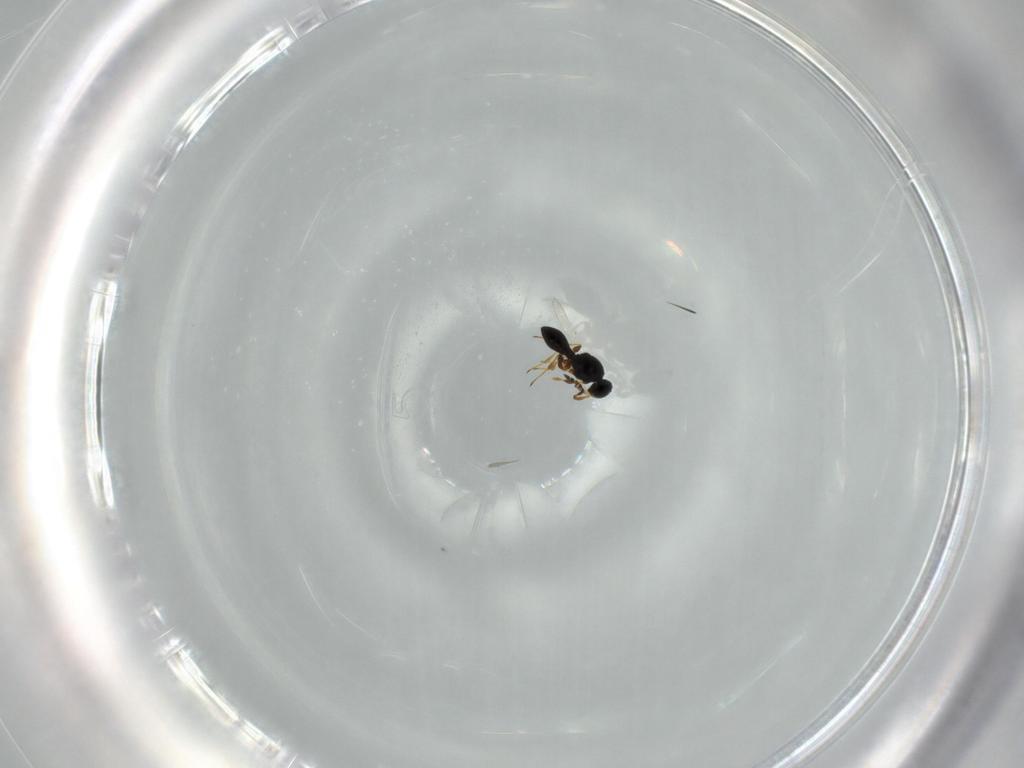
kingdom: Animalia
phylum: Arthropoda
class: Insecta
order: Hymenoptera
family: Platygastridae
